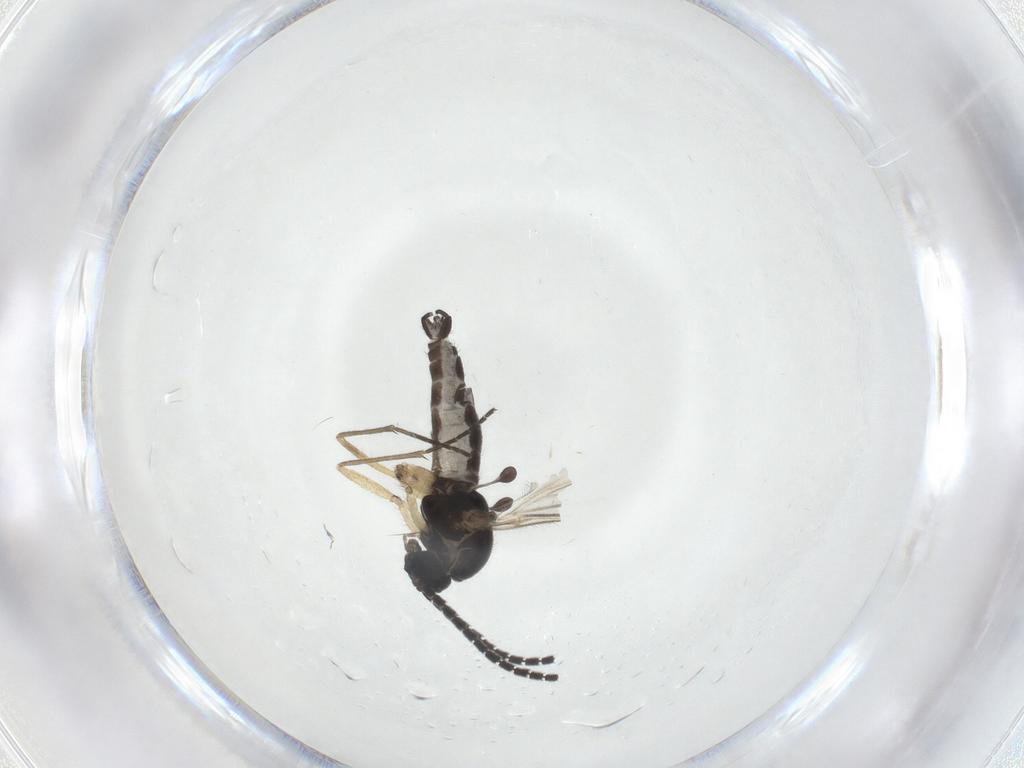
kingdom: Animalia
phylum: Arthropoda
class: Insecta
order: Diptera
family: Sciaridae
